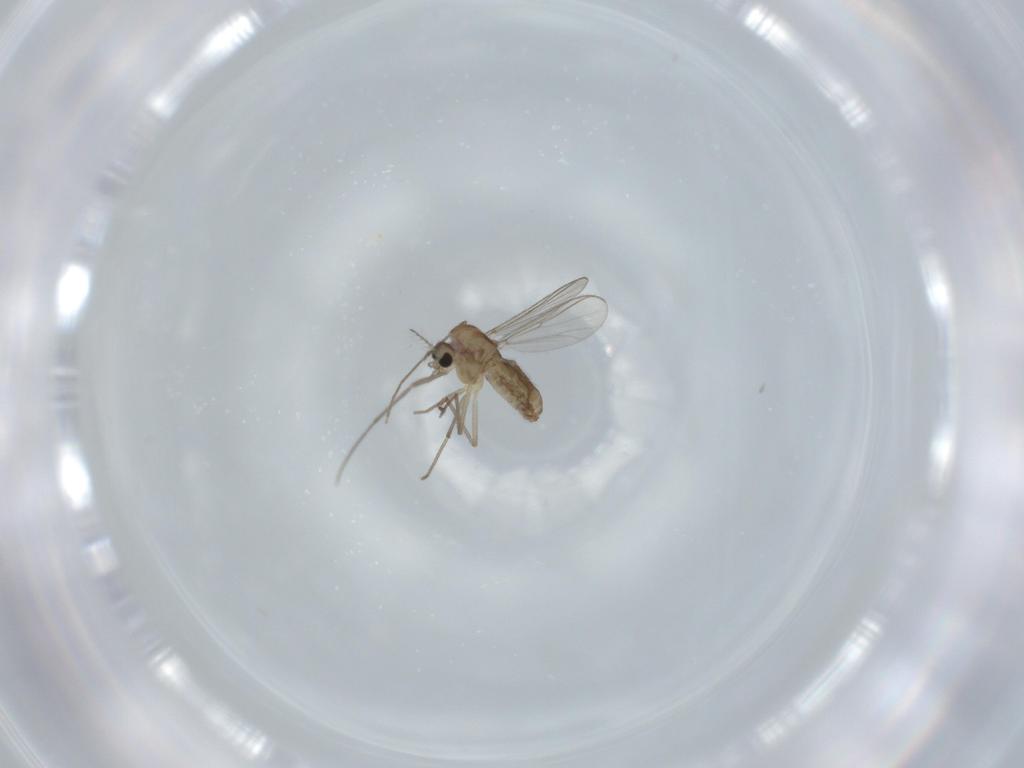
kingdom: Animalia
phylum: Arthropoda
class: Insecta
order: Diptera
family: Chironomidae
